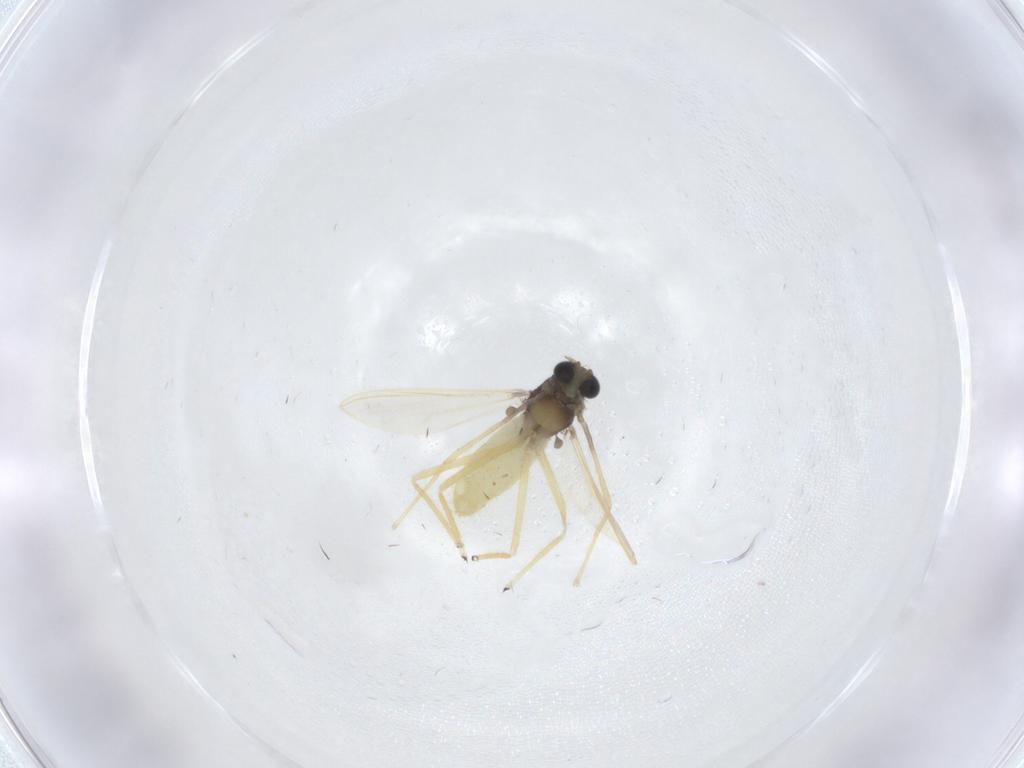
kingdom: Animalia
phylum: Arthropoda
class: Insecta
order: Diptera
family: Chironomidae
